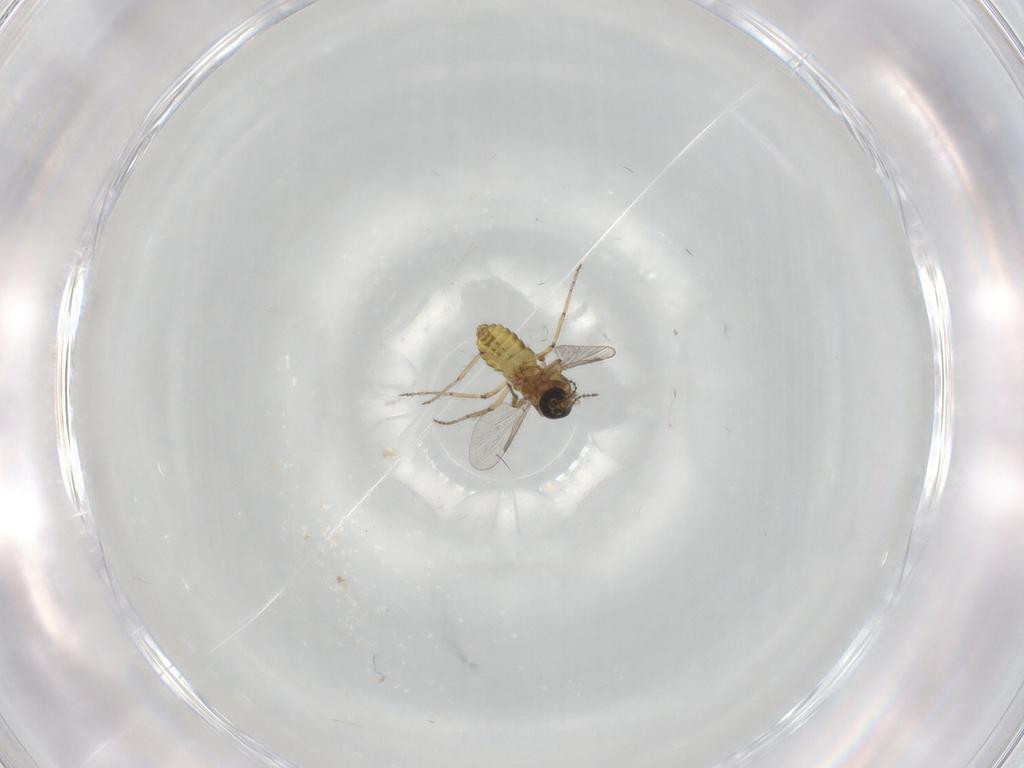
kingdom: Animalia
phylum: Arthropoda
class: Insecta
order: Diptera
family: Ceratopogonidae
